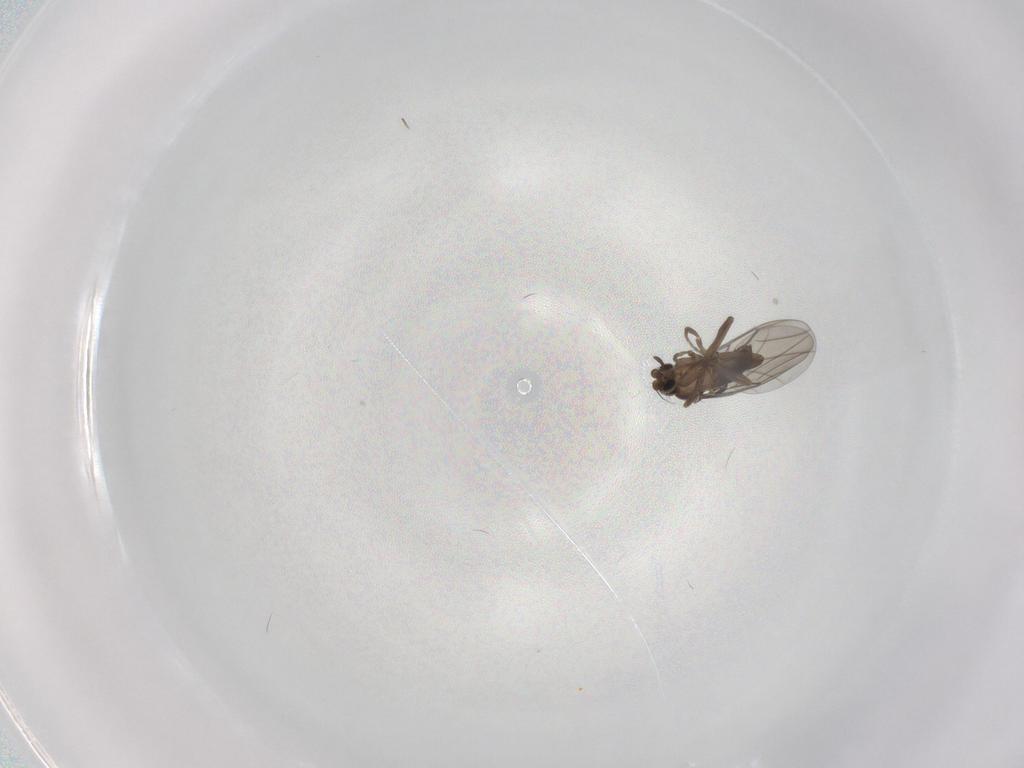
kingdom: Animalia
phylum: Arthropoda
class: Insecta
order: Diptera
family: Phoridae
